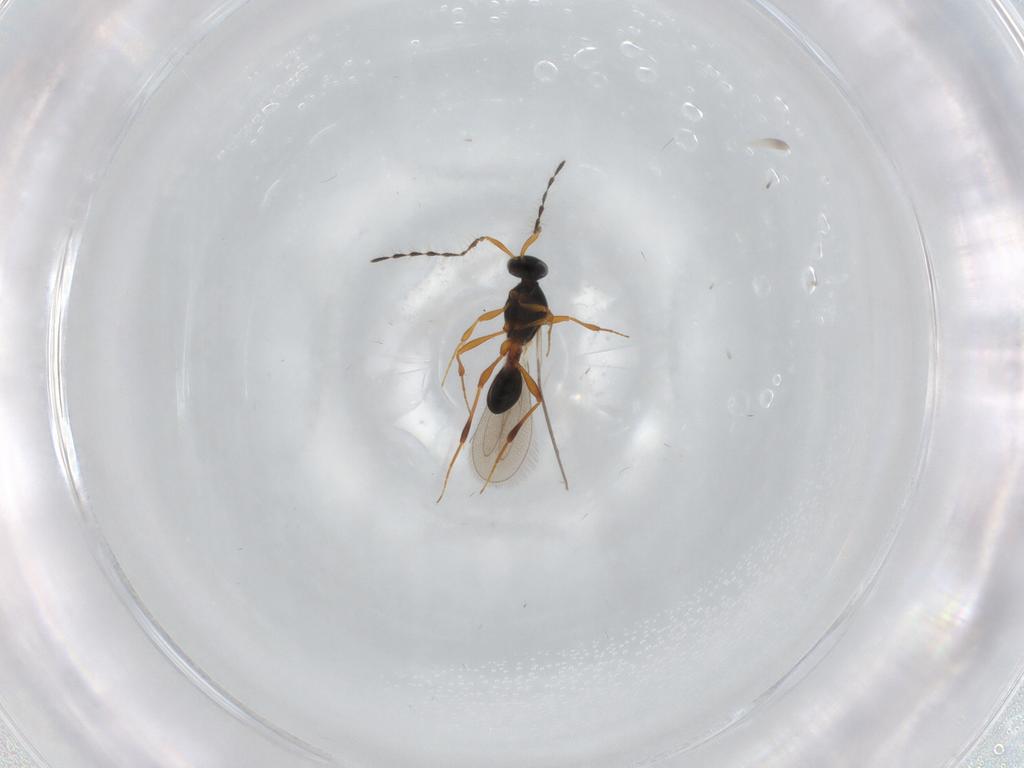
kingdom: Animalia
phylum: Arthropoda
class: Insecta
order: Hymenoptera
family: Platygastridae
